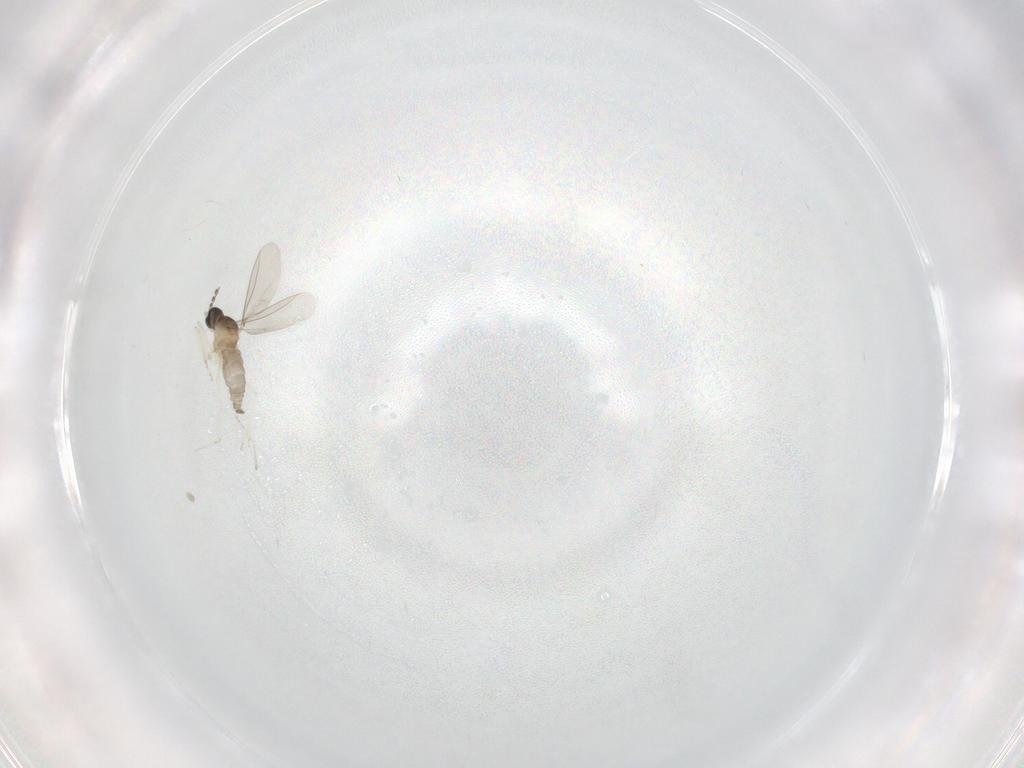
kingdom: Animalia
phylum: Arthropoda
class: Insecta
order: Diptera
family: Cecidomyiidae
